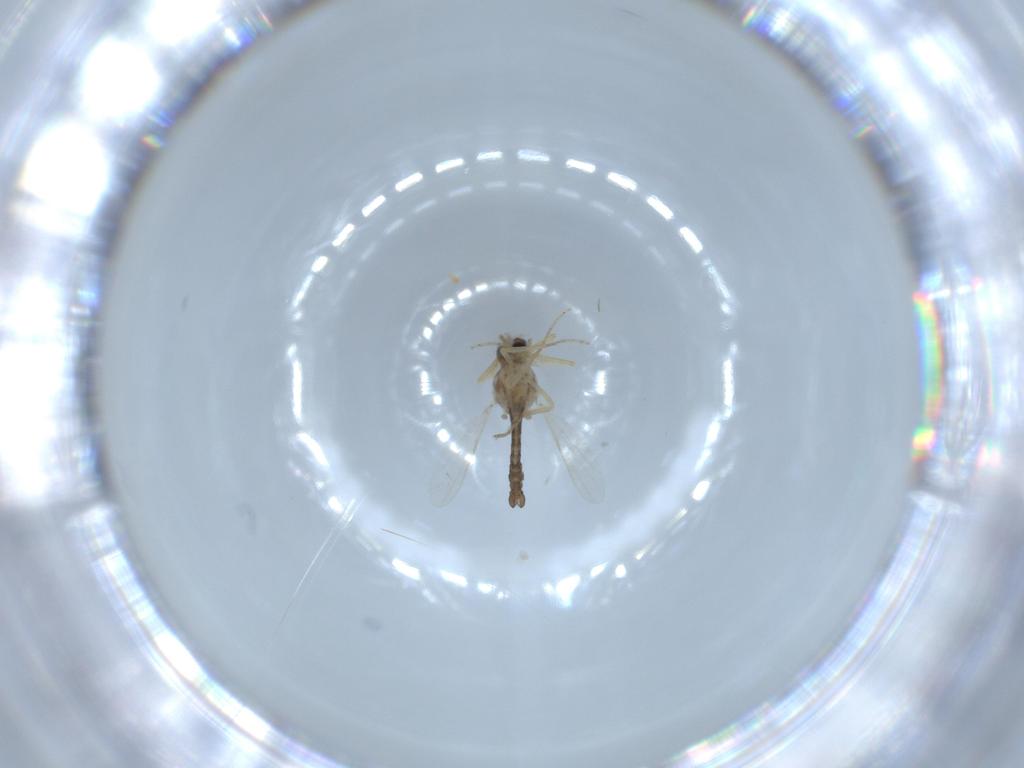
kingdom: Animalia
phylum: Arthropoda
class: Insecta
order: Diptera
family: Ceratopogonidae
